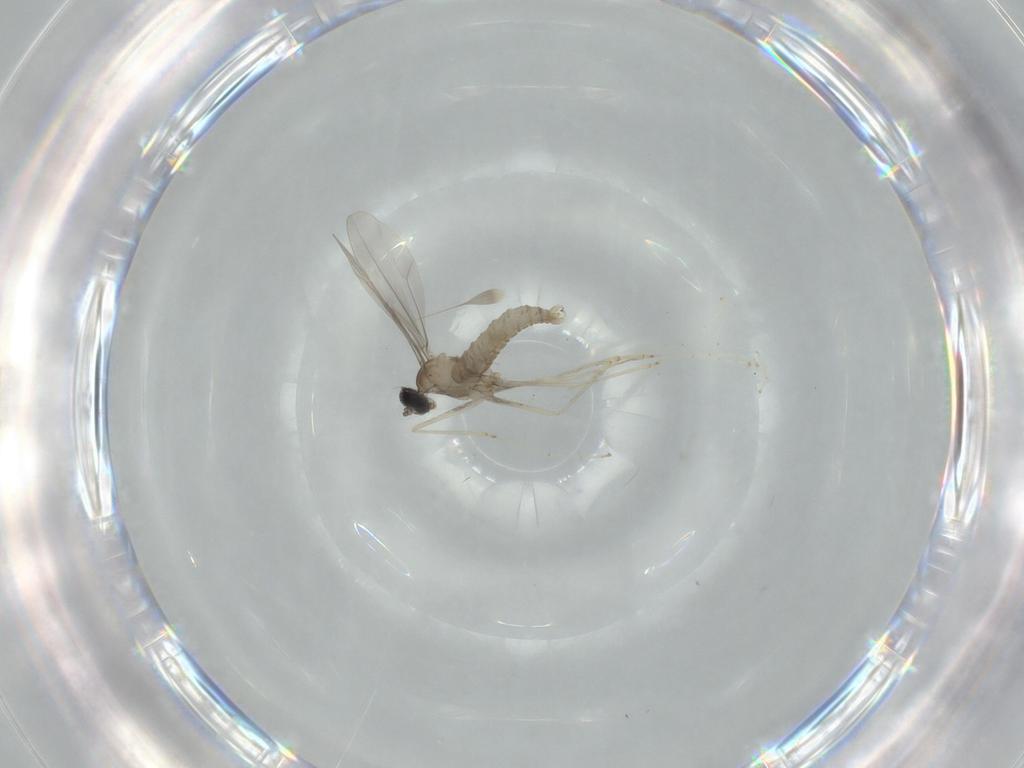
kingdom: Animalia
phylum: Arthropoda
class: Insecta
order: Diptera
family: Cecidomyiidae
